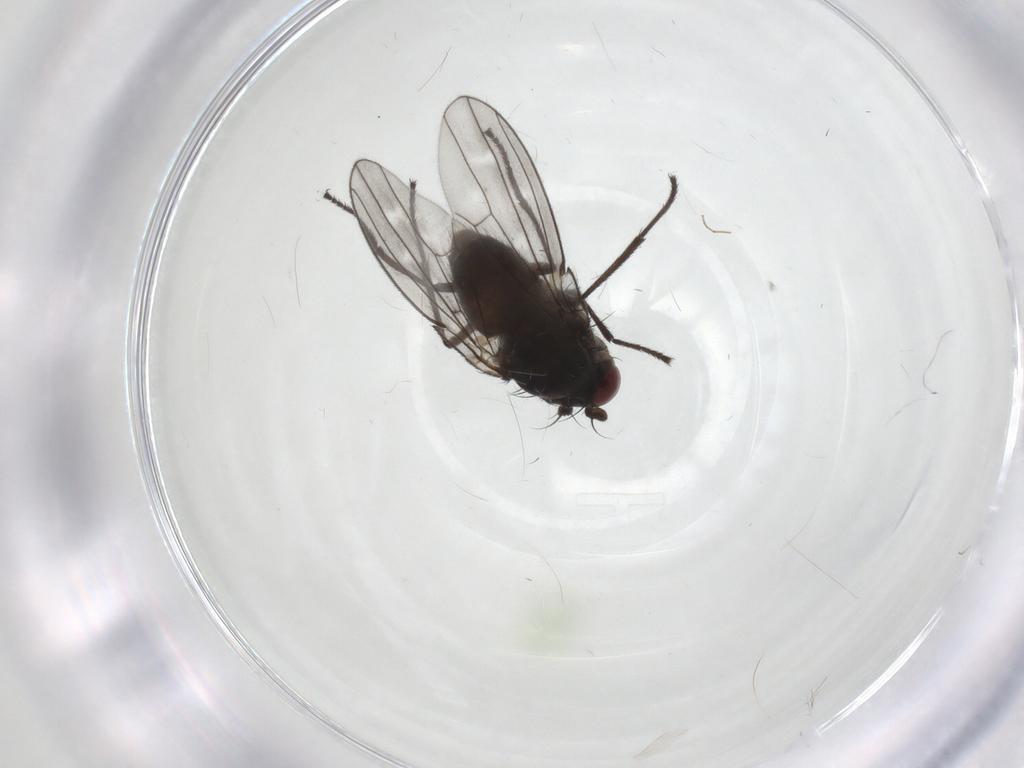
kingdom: Animalia
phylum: Arthropoda
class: Insecta
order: Diptera
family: Ephydridae
